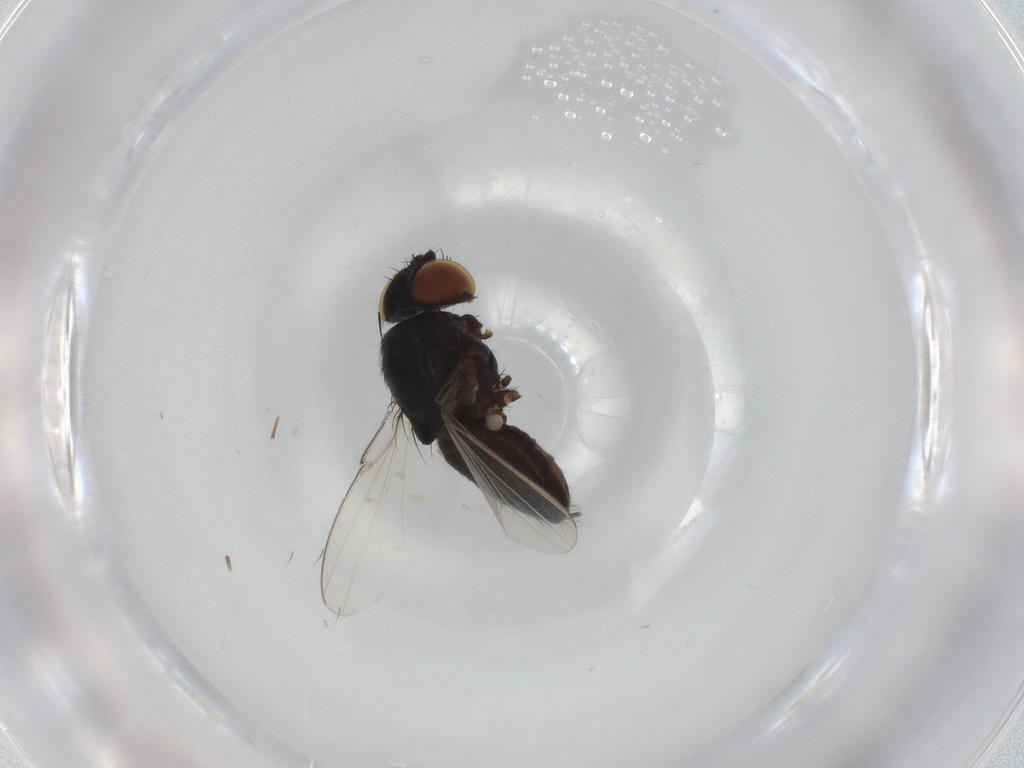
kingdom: Animalia
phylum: Arthropoda
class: Insecta
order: Diptera
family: Milichiidae
